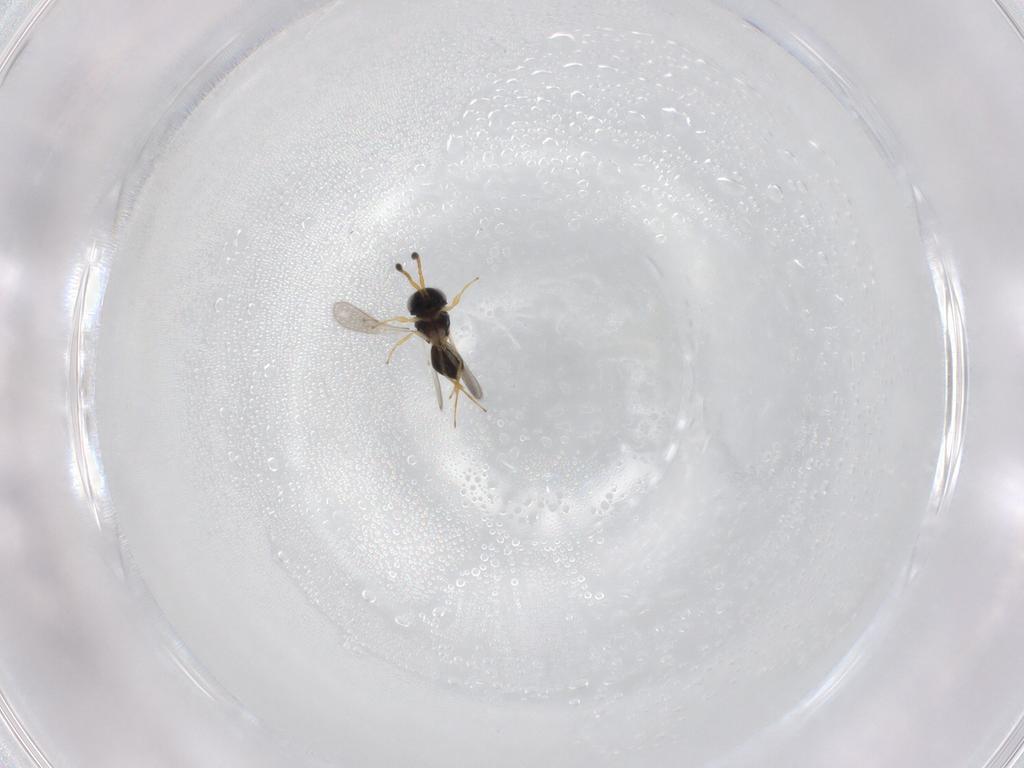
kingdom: Animalia
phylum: Arthropoda
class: Insecta
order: Hymenoptera
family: Scelionidae
